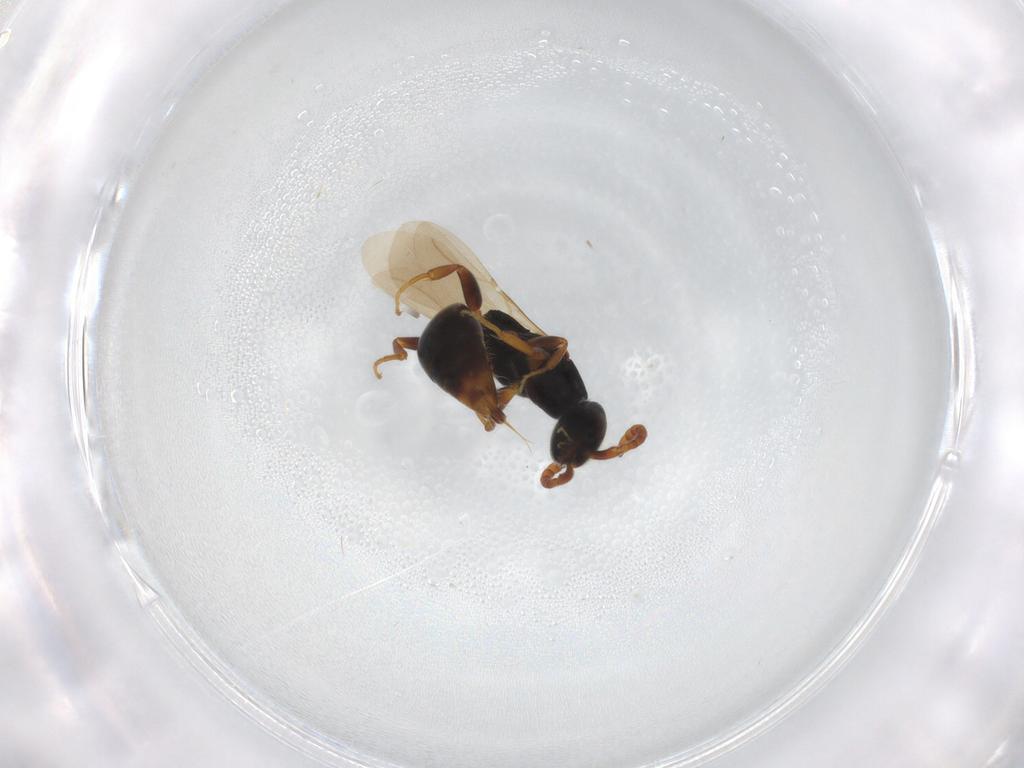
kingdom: Animalia
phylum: Arthropoda
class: Insecta
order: Hymenoptera
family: Bethylidae
